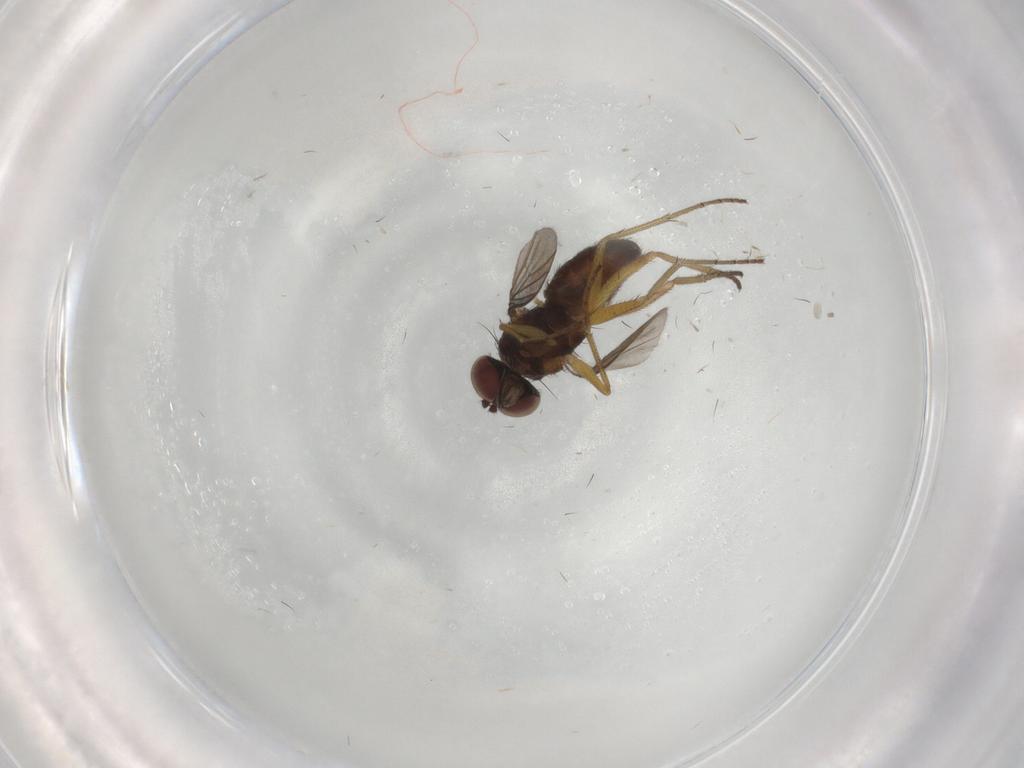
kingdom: Animalia
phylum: Arthropoda
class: Insecta
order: Diptera
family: Dolichopodidae
